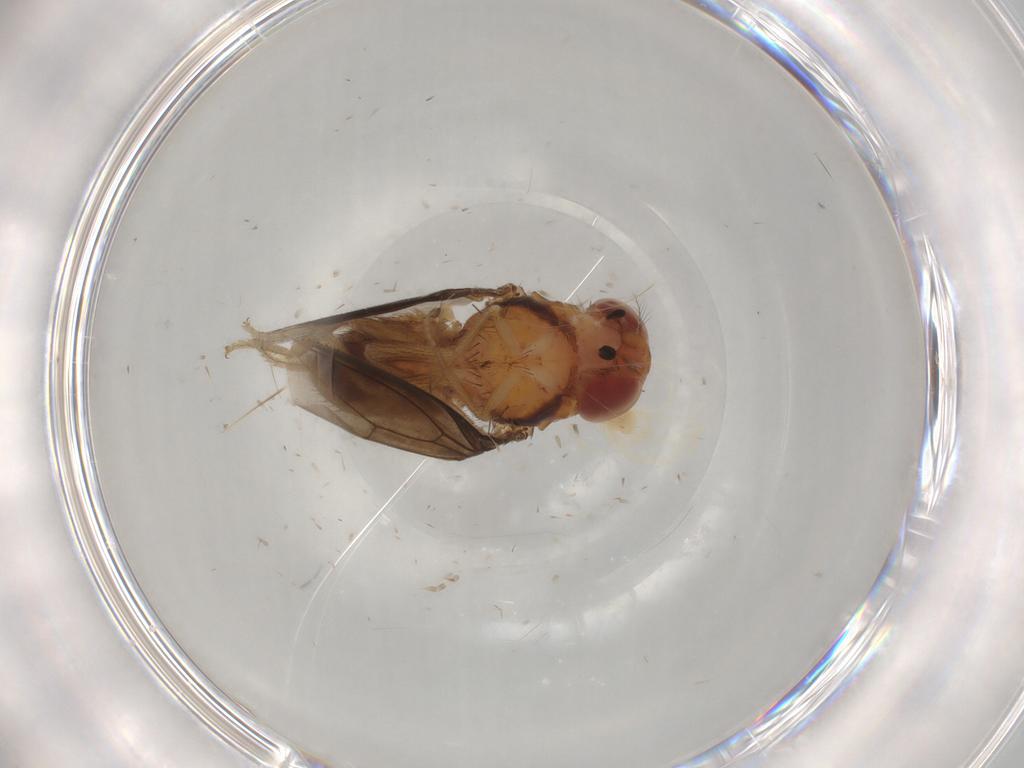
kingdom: Animalia
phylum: Arthropoda
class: Insecta
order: Diptera
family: Drosophilidae
